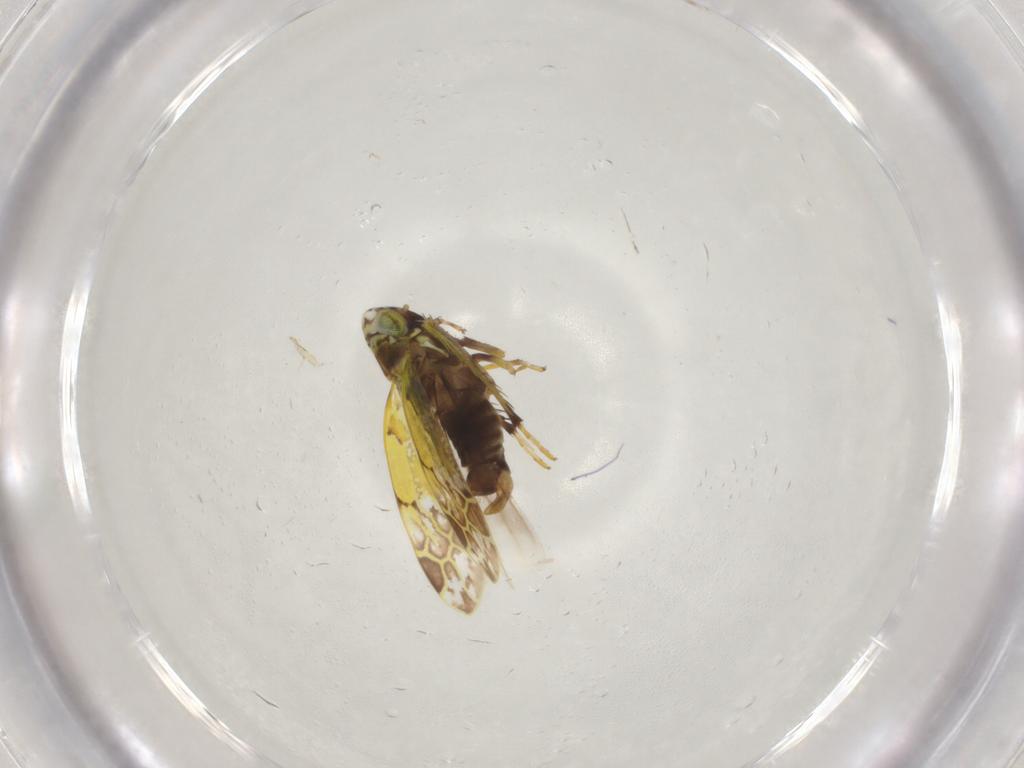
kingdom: Animalia
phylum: Arthropoda
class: Insecta
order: Hemiptera
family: Cicadellidae
